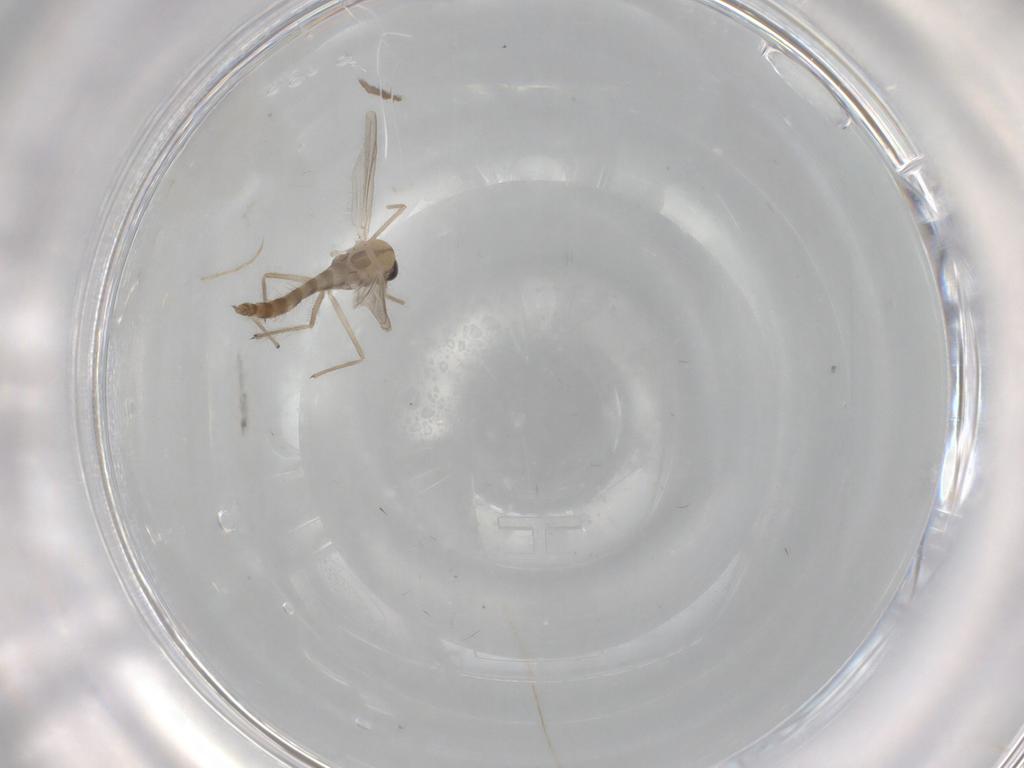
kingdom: Animalia
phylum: Arthropoda
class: Insecta
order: Diptera
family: Chironomidae
